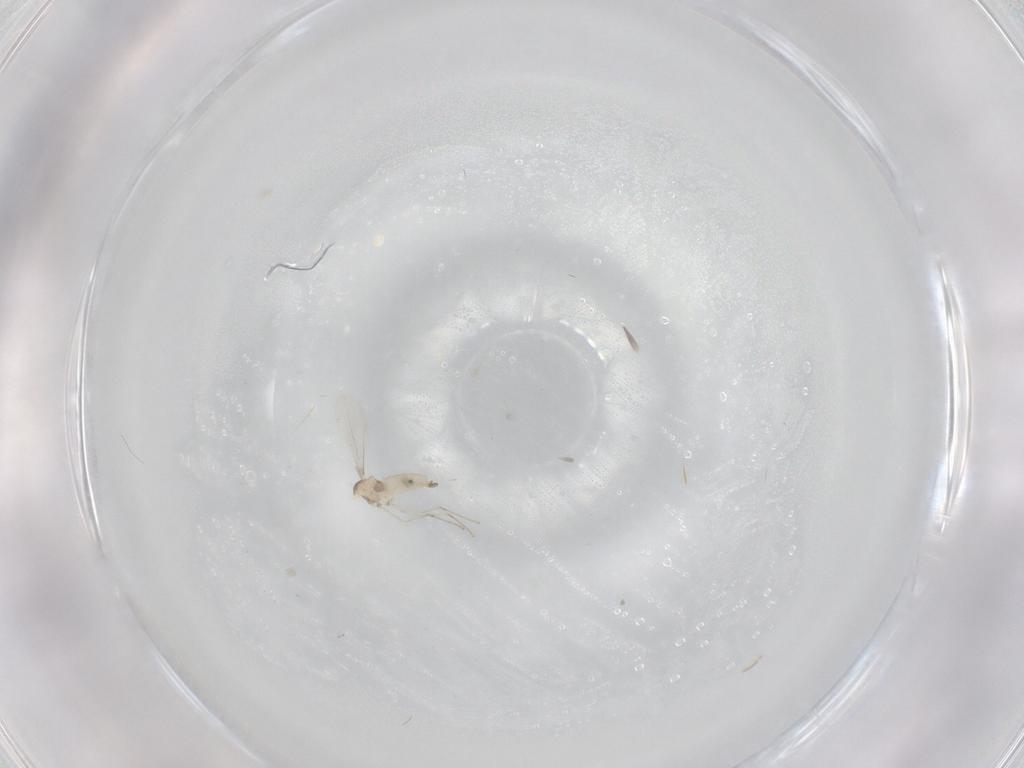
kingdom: Animalia
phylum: Arthropoda
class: Insecta
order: Diptera
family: Cecidomyiidae
